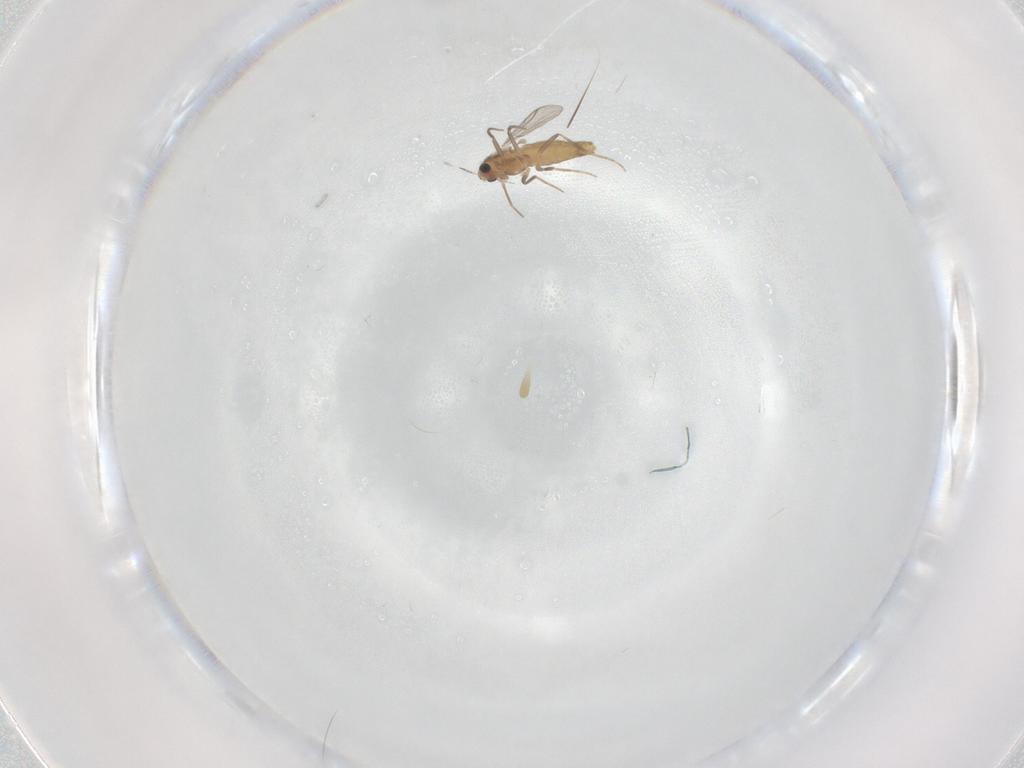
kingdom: Animalia
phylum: Arthropoda
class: Insecta
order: Diptera
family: Chironomidae
